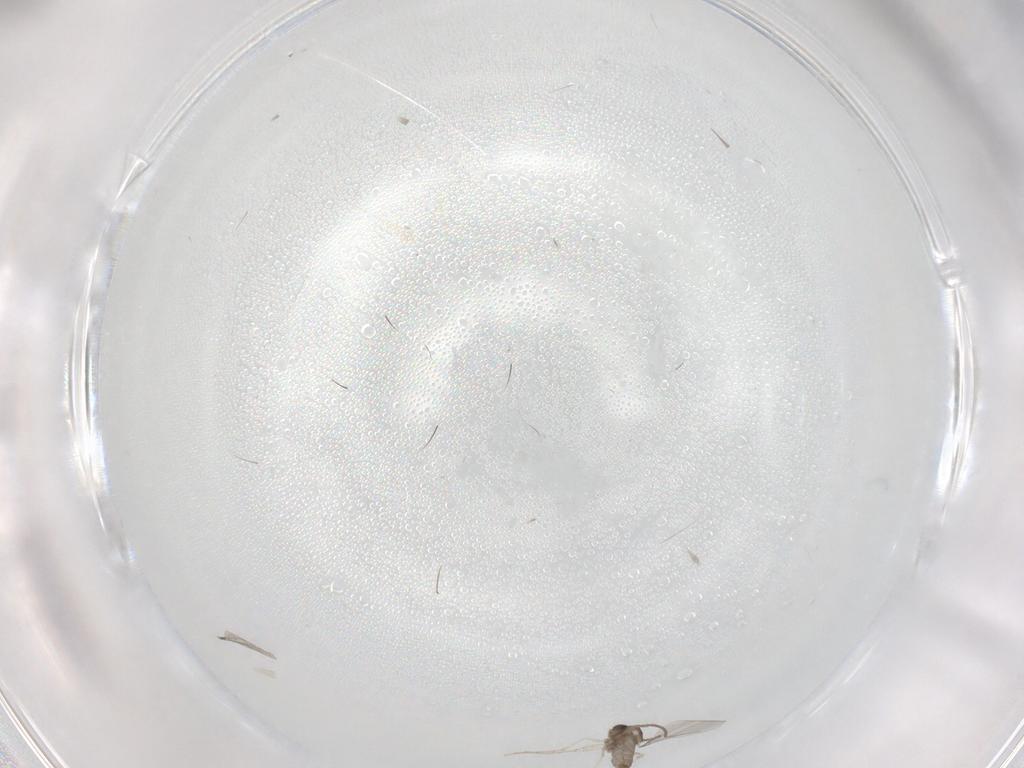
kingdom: Animalia
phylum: Arthropoda
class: Insecta
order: Diptera
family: Cecidomyiidae
